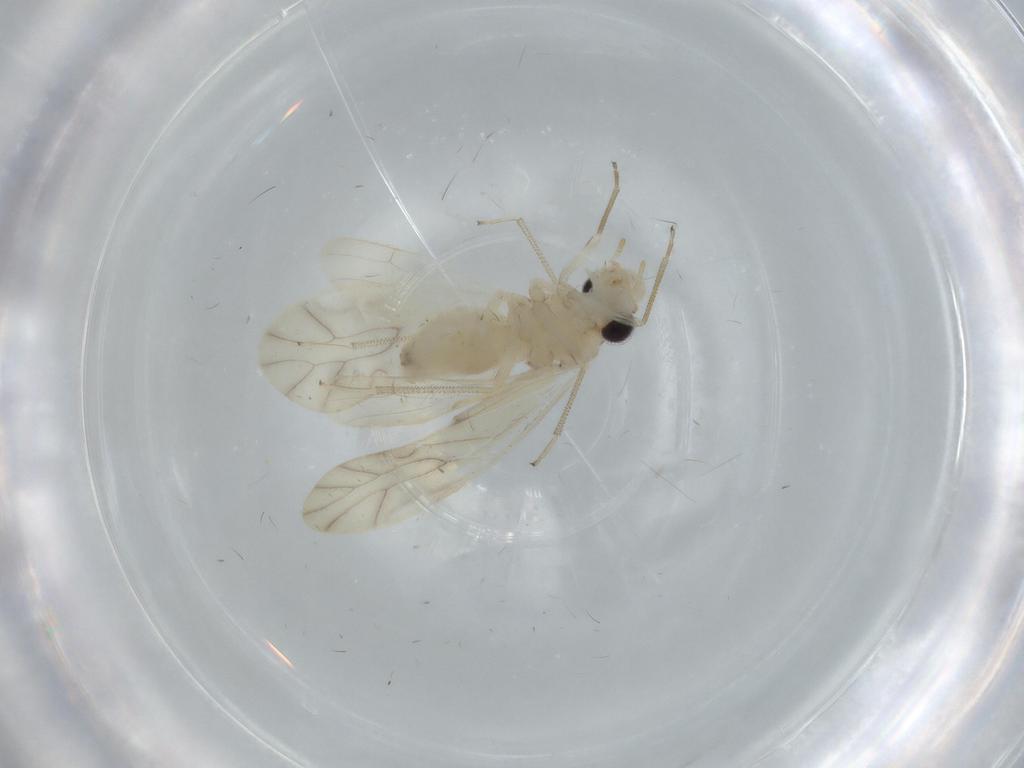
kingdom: Animalia
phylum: Arthropoda
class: Insecta
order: Psocodea
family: Caeciliusidae
